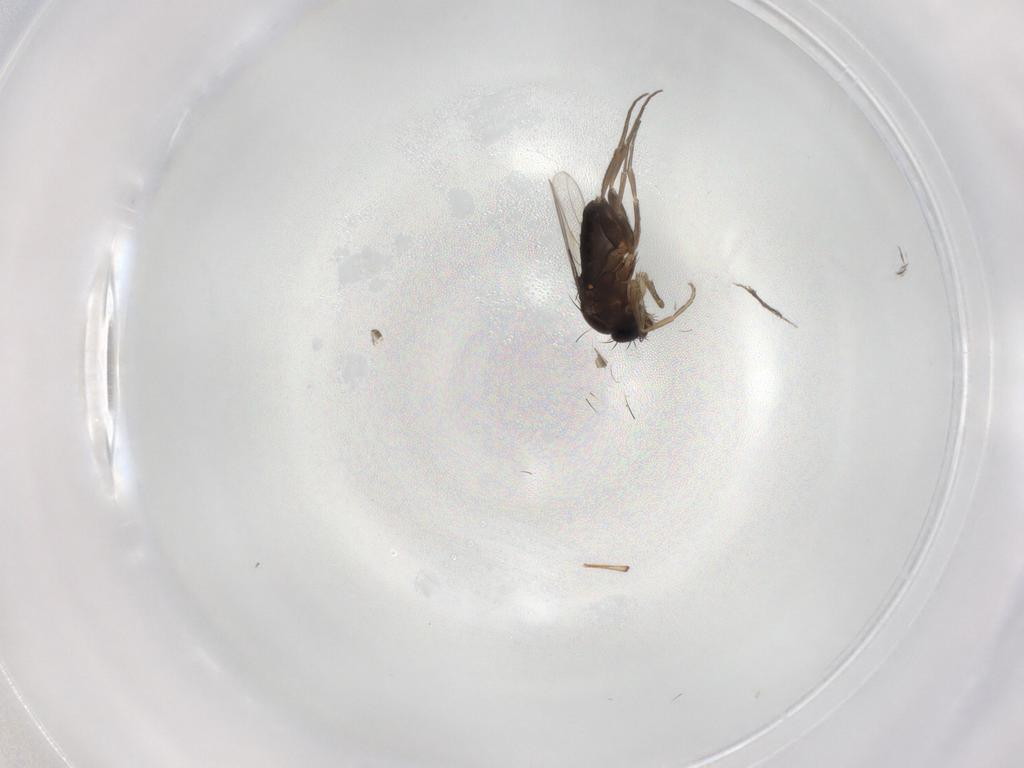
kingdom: Animalia
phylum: Arthropoda
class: Insecta
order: Diptera
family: Phoridae
